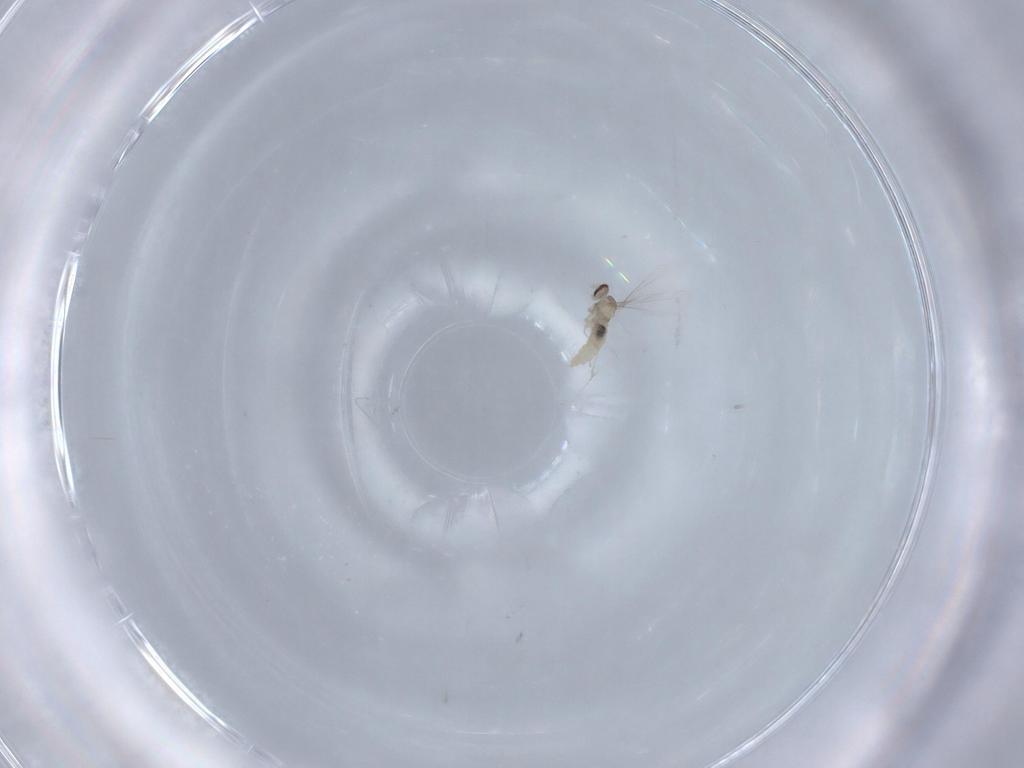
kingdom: Animalia
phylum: Arthropoda
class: Insecta
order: Diptera
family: Cecidomyiidae
